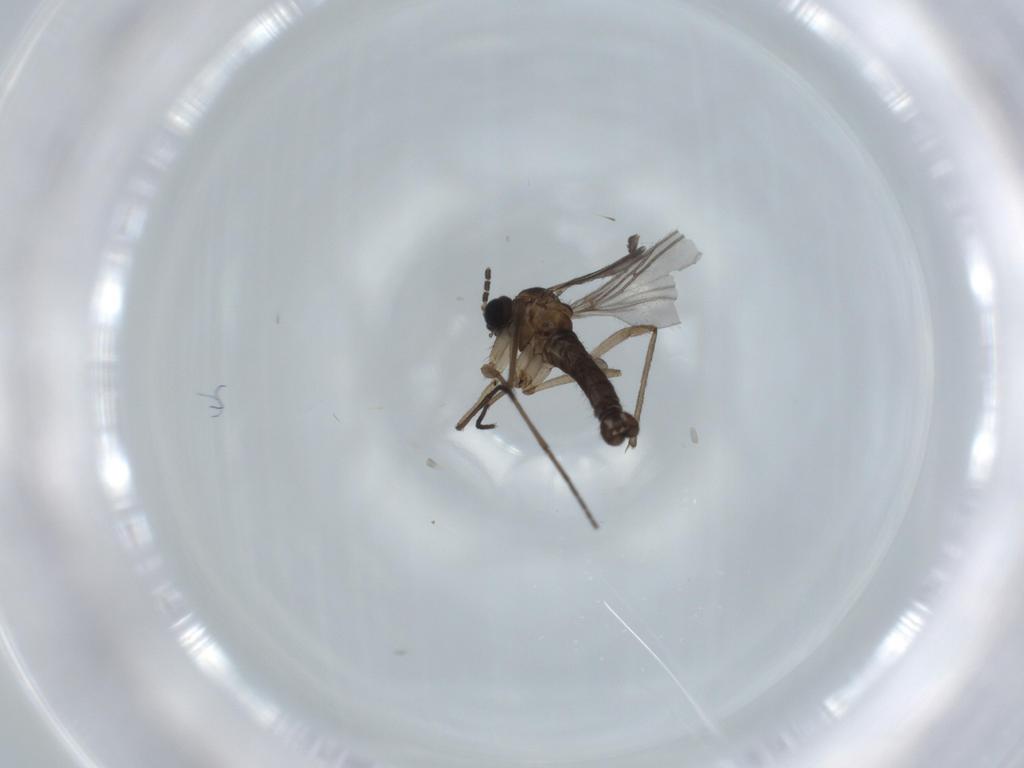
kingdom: Animalia
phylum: Arthropoda
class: Insecta
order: Diptera
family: Sciaridae
